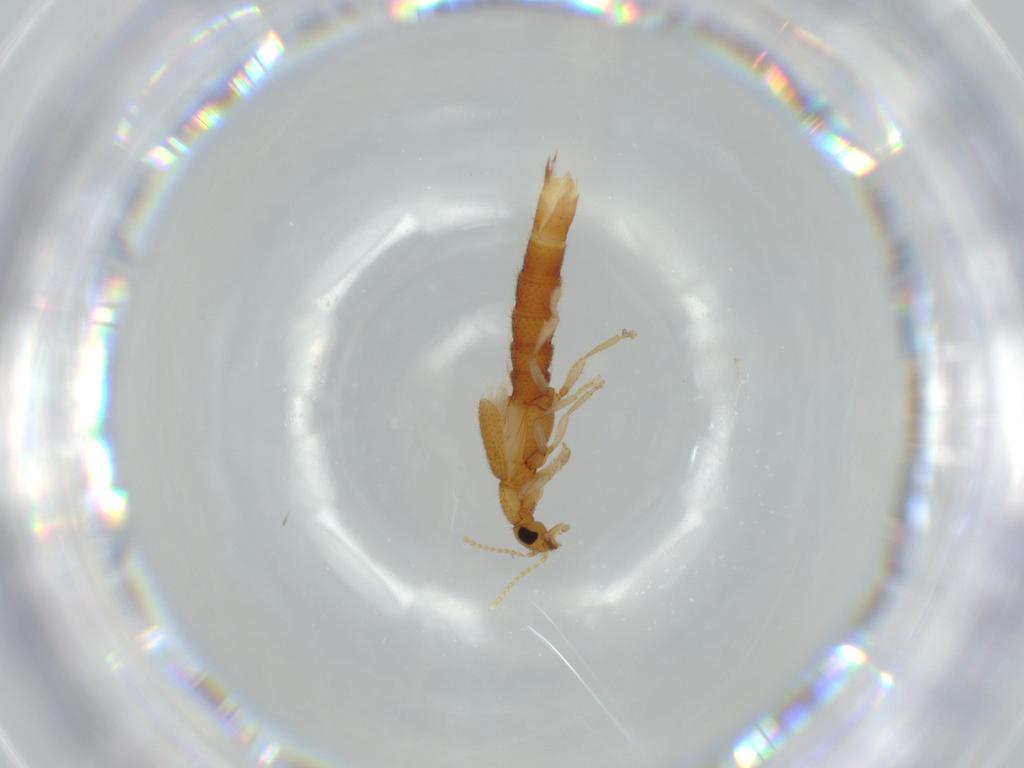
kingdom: Animalia
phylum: Arthropoda
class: Insecta
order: Coleoptera
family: Staphylinidae
